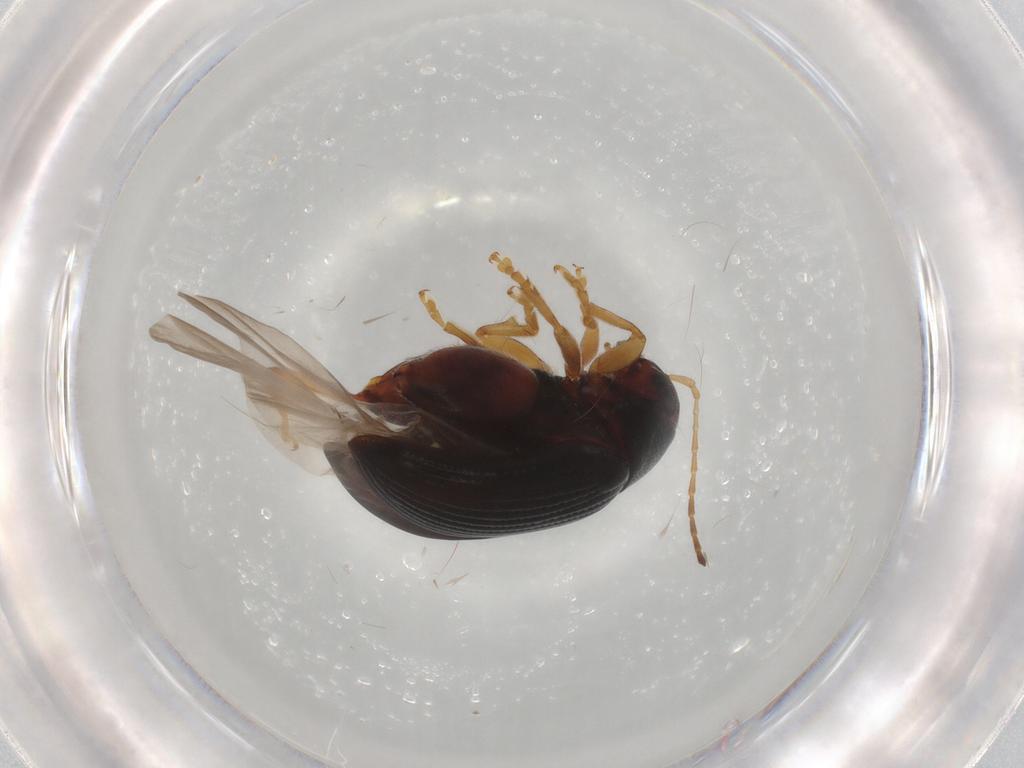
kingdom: Animalia
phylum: Arthropoda
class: Insecta
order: Coleoptera
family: Chrysomelidae
